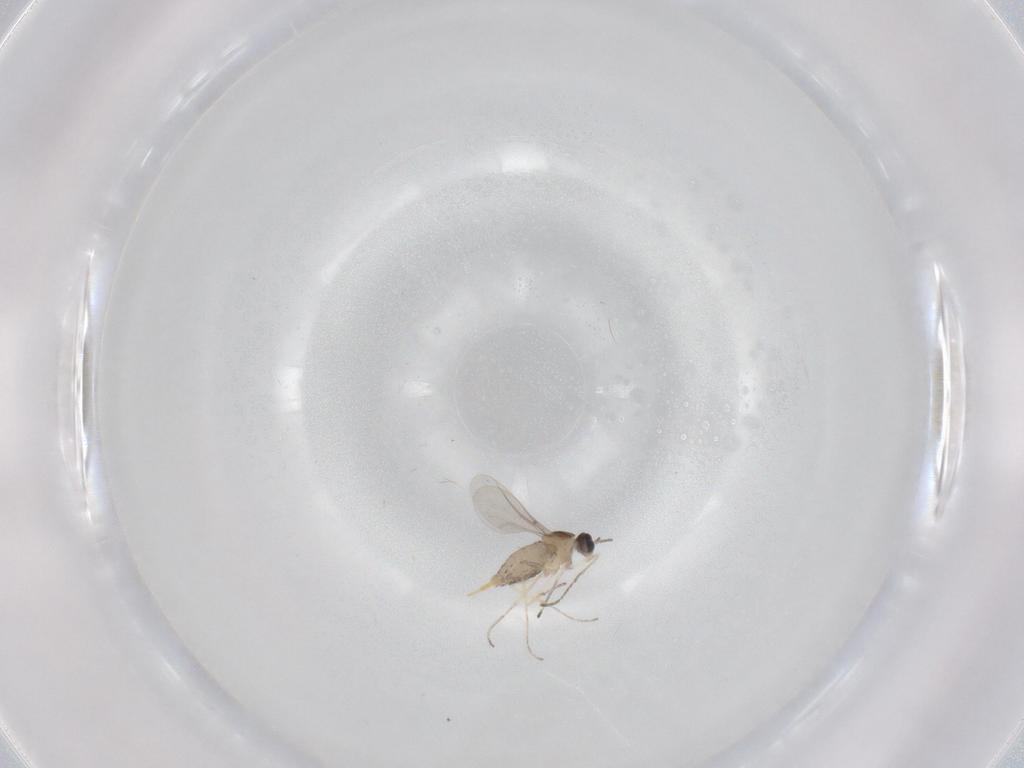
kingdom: Animalia
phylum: Arthropoda
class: Insecta
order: Diptera
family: Cecidomyiidae
